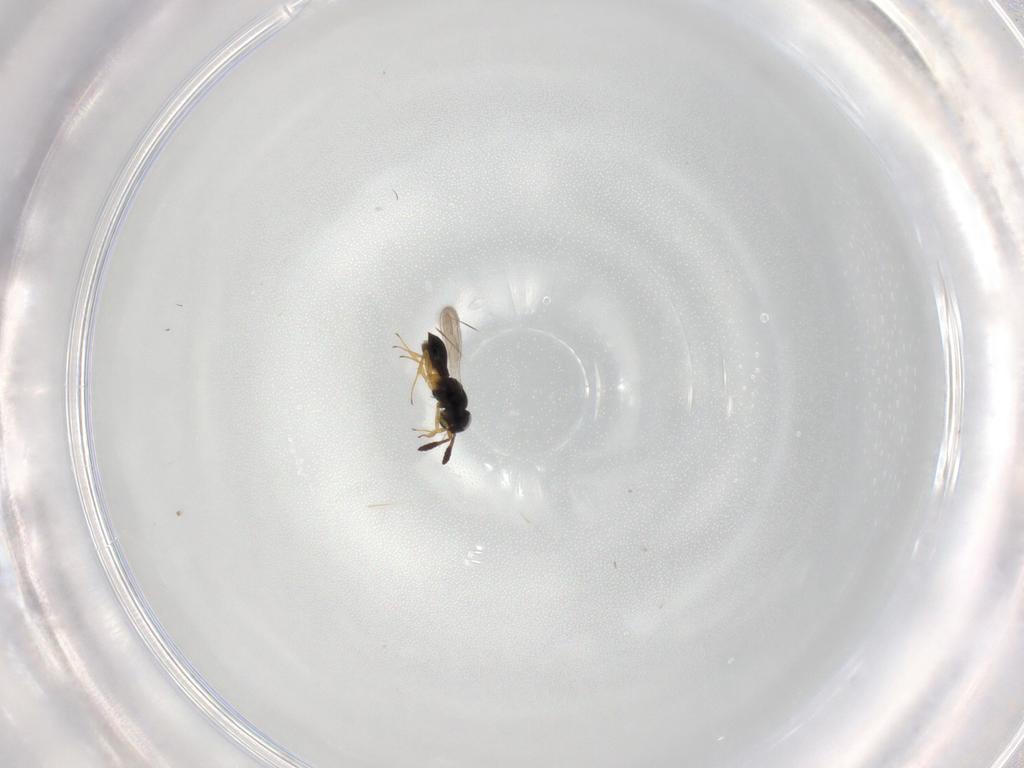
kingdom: Animalia
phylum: Arthropoda
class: Insecta
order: Hymenoptera
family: Scelionidae
